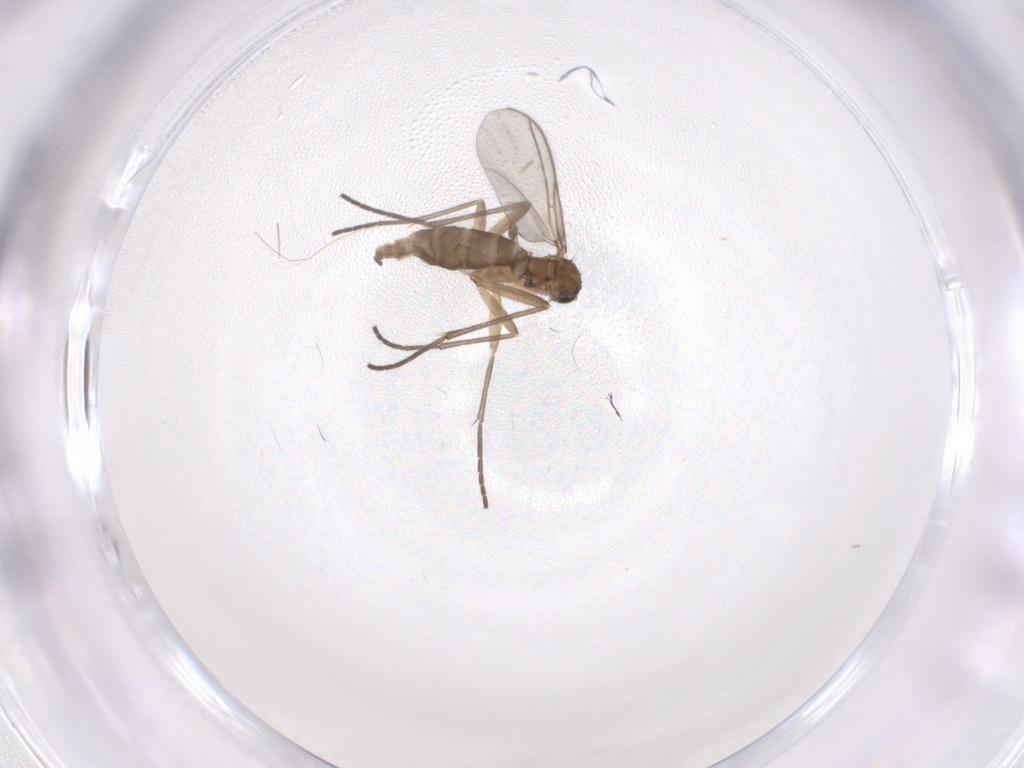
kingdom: Animalia
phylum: Arthropoda
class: Insecta
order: Diptera
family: Sciaridae
